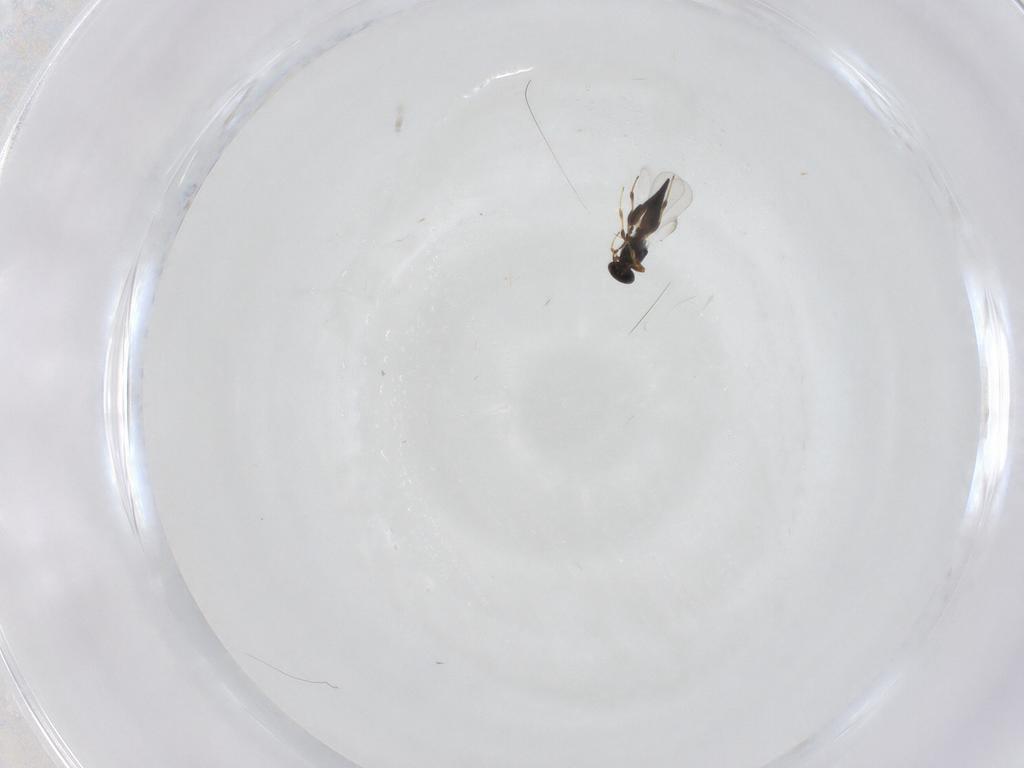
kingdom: Animalia
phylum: Arthropoda
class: Insecta
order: Hymenoptera
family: Platygastridae
